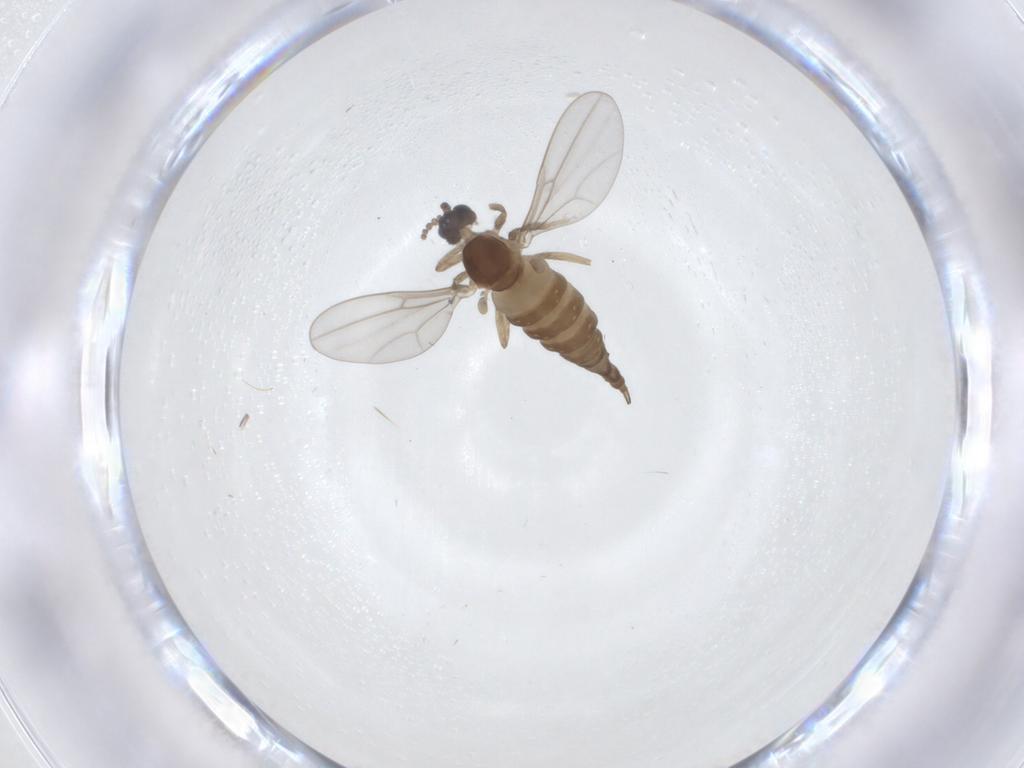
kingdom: Animalia
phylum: Arthropoda
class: Insecta
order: Diptera
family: Cecidomyiidae
